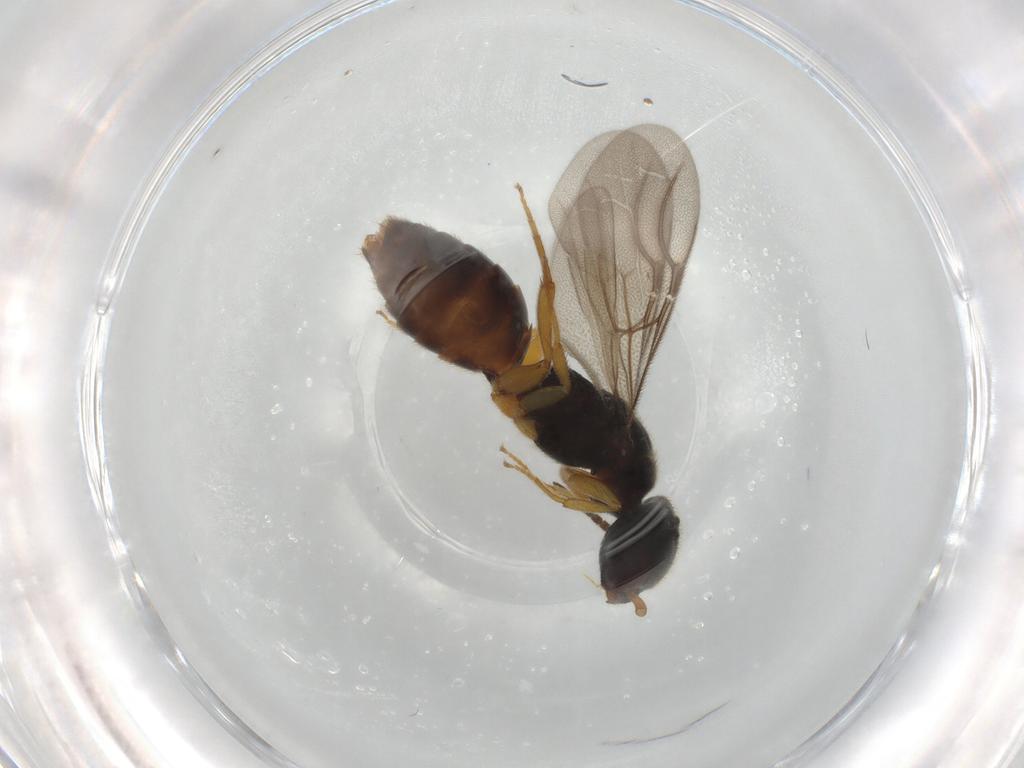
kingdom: Animalia
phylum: Arthropoda
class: Insecta
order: Hymenoptera
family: Bethylidae
